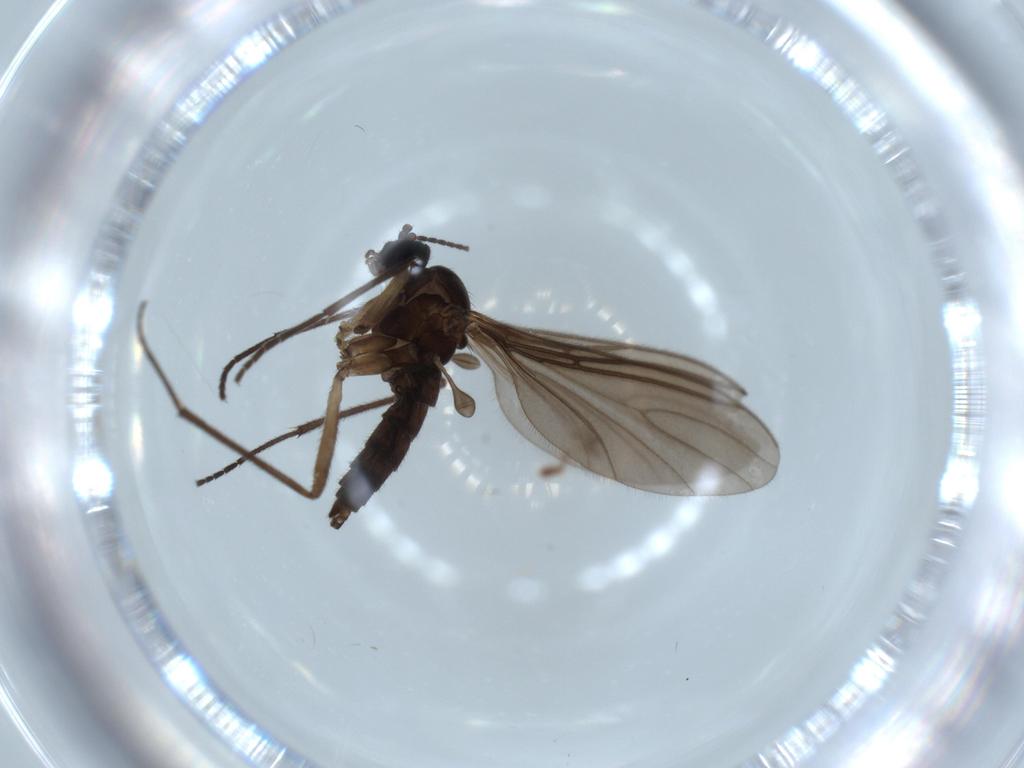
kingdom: Animalia
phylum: Arthropoda
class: Insecta
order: Diptera
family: Sciaridae
